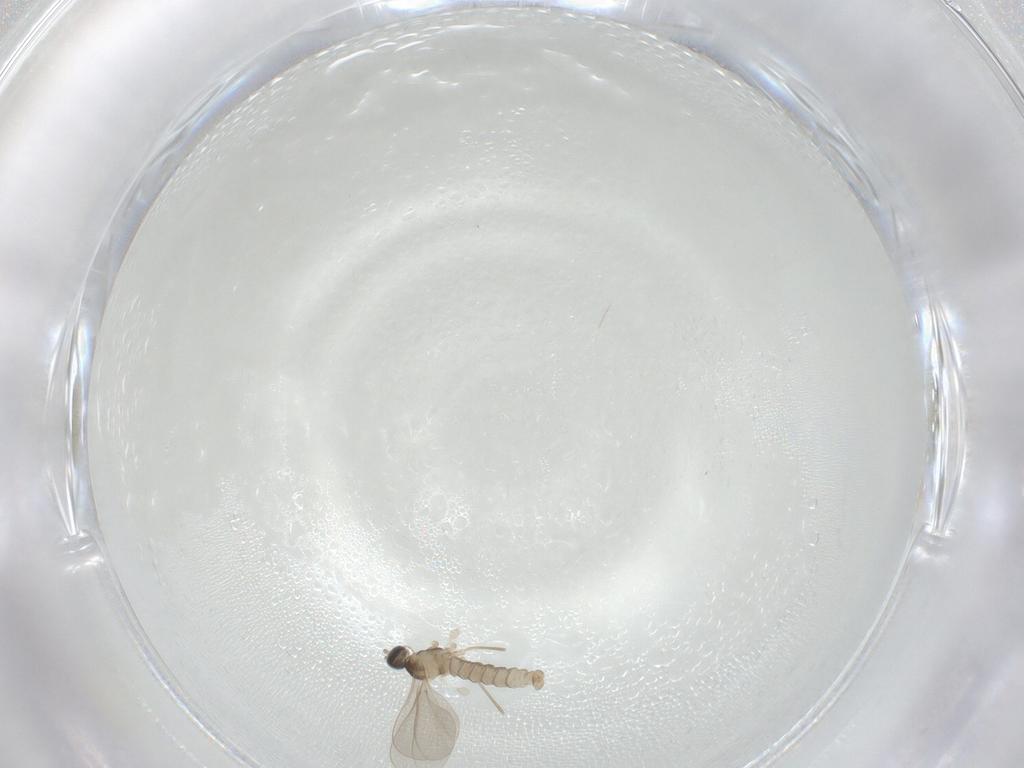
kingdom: Animalia
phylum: Arthropoda
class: Insecta
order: Diptera
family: Cecidomyiidae
